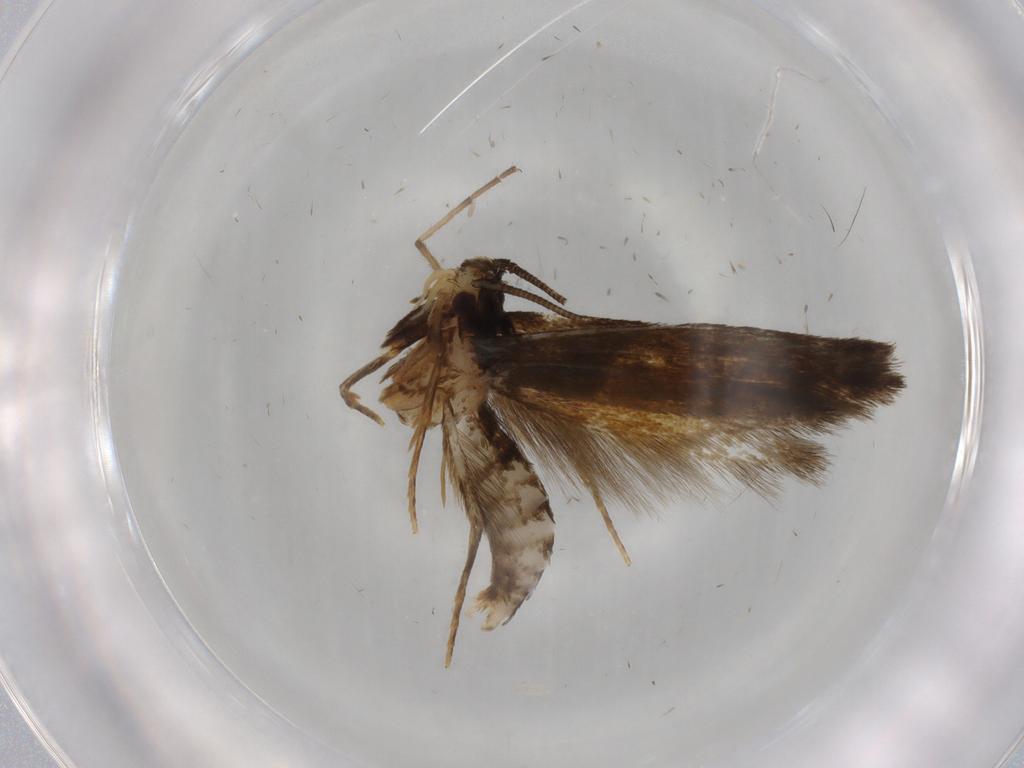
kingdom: Animalia
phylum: Arthropoda
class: Insecta
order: Lepidoptera
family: Tineidae
